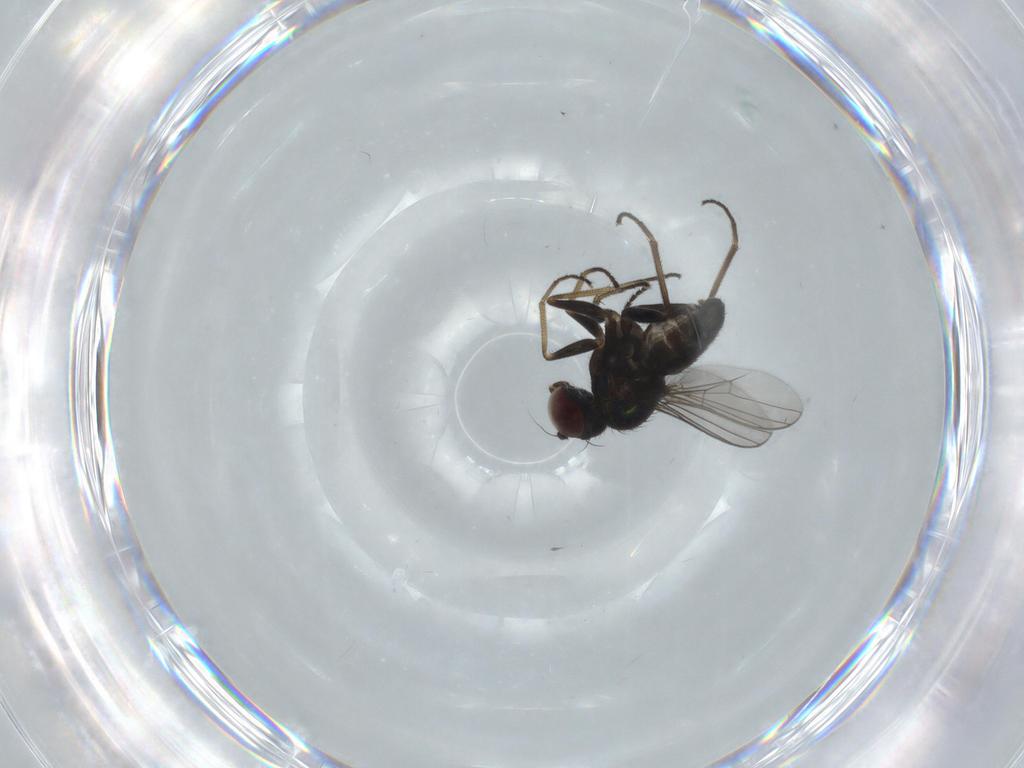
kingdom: Animalia
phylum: Arthropoda
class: Insecta
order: Diptera
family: Dolichopodidae
